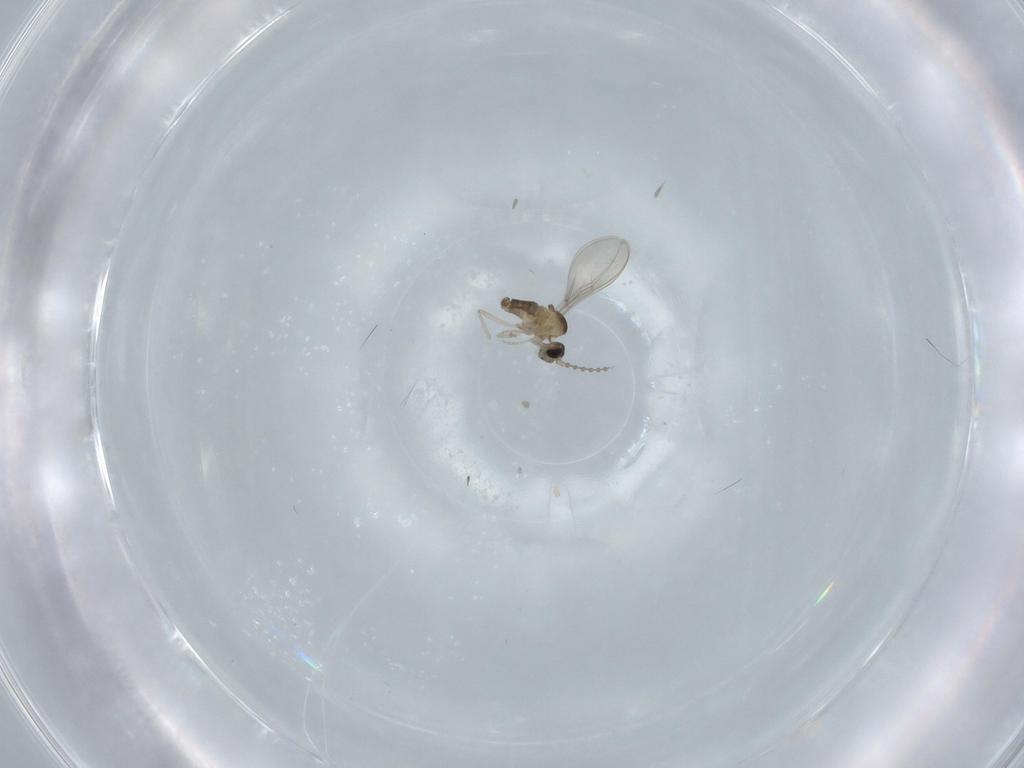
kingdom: Animalia
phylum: Arthropoda
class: Insecta
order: Diptera
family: Cecidomyiidae
